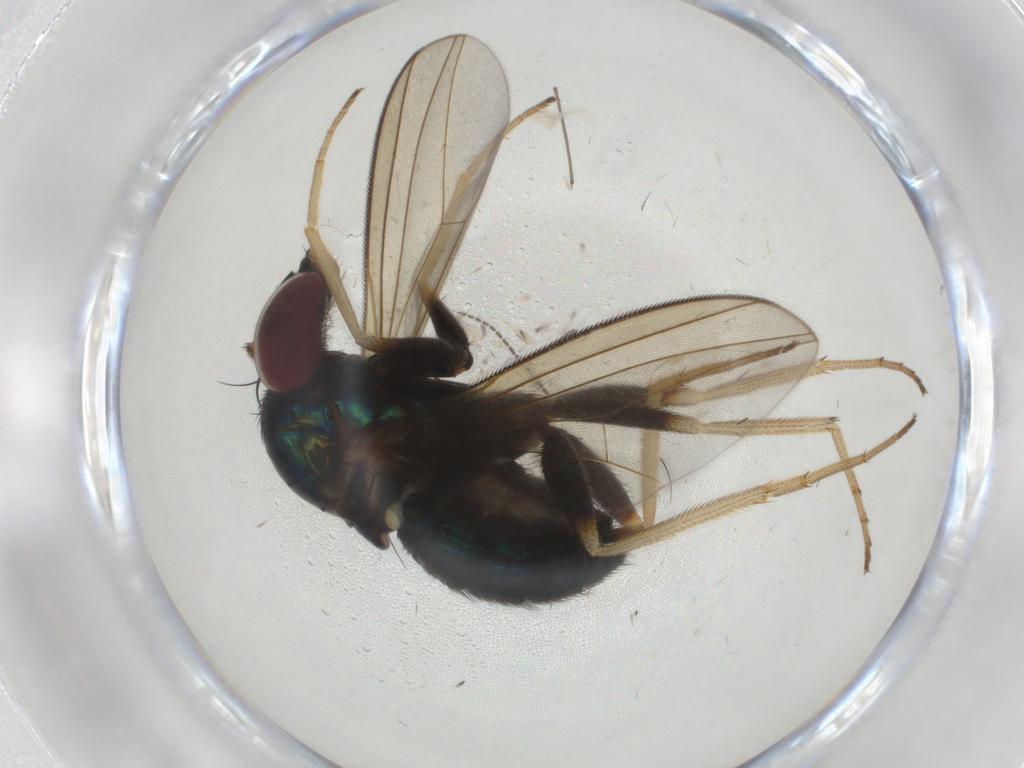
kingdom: Animalia
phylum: Arthropoda
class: Insecta
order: Diptera
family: Dolichopodidae
